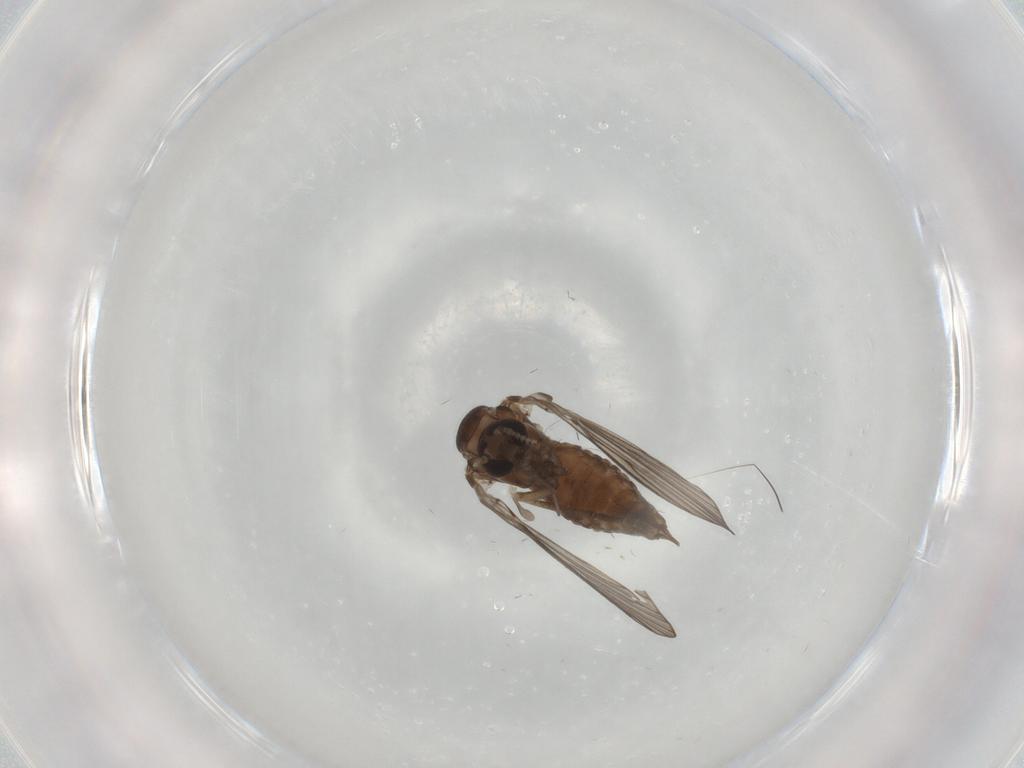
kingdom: Animalia
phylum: Arthropoda
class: Insecta
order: Diptera
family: Psychodidae
